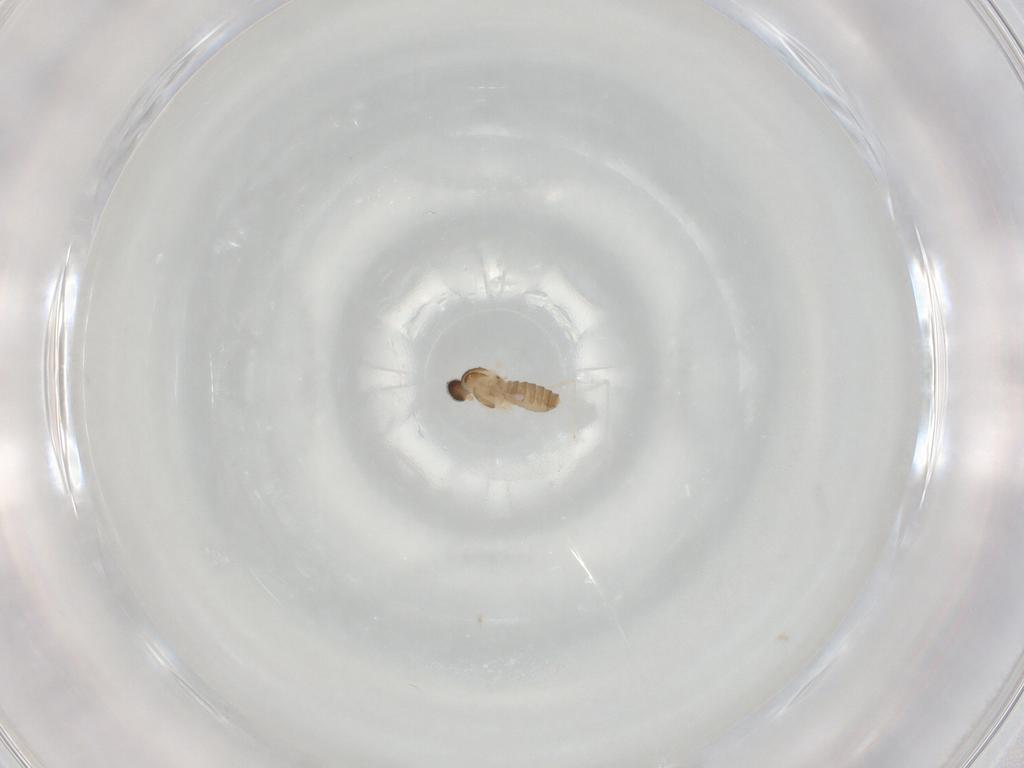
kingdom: Animalia
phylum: Arthropoda
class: Insecta
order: Diptera
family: Cecidomyiidae
